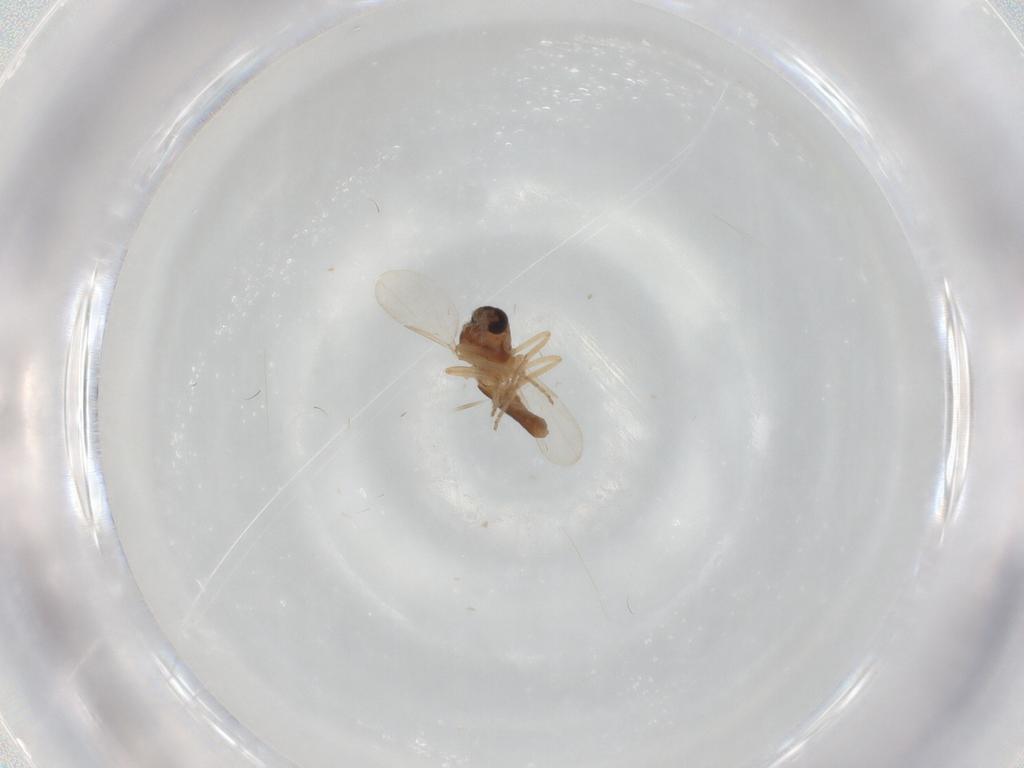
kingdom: Animalia
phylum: Arthropoda
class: Insecta
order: Diptera
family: Ceratopogonidae
